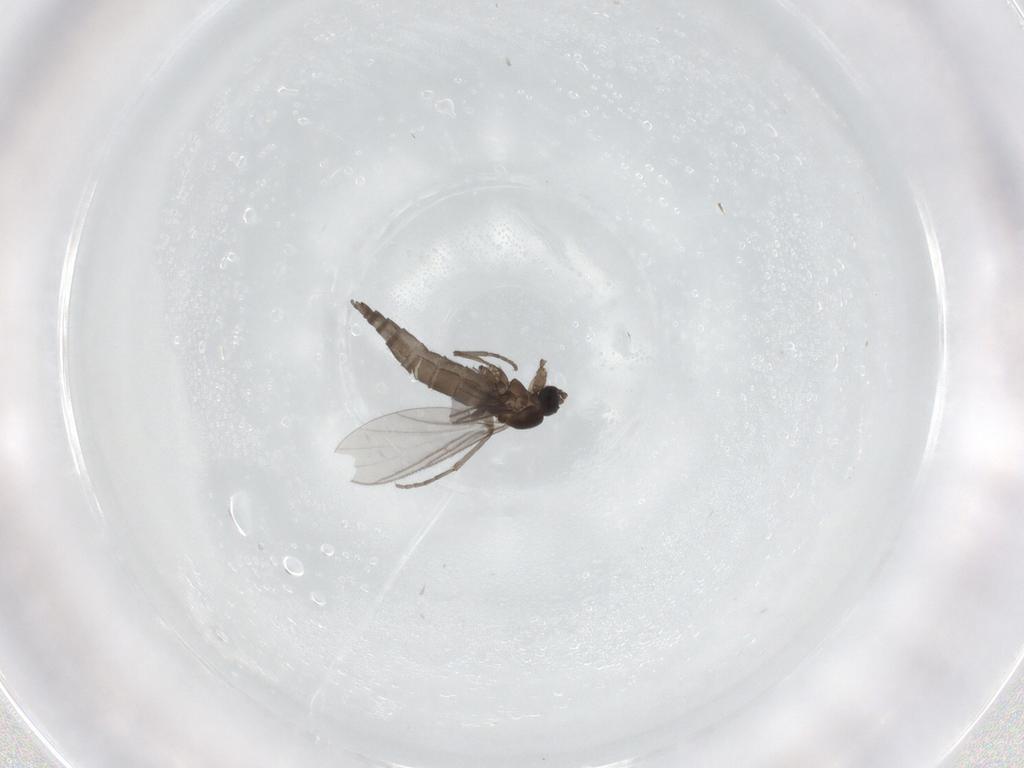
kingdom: Animalia
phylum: Arthropoda
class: Insecta
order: Diptera
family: Sciaridae
